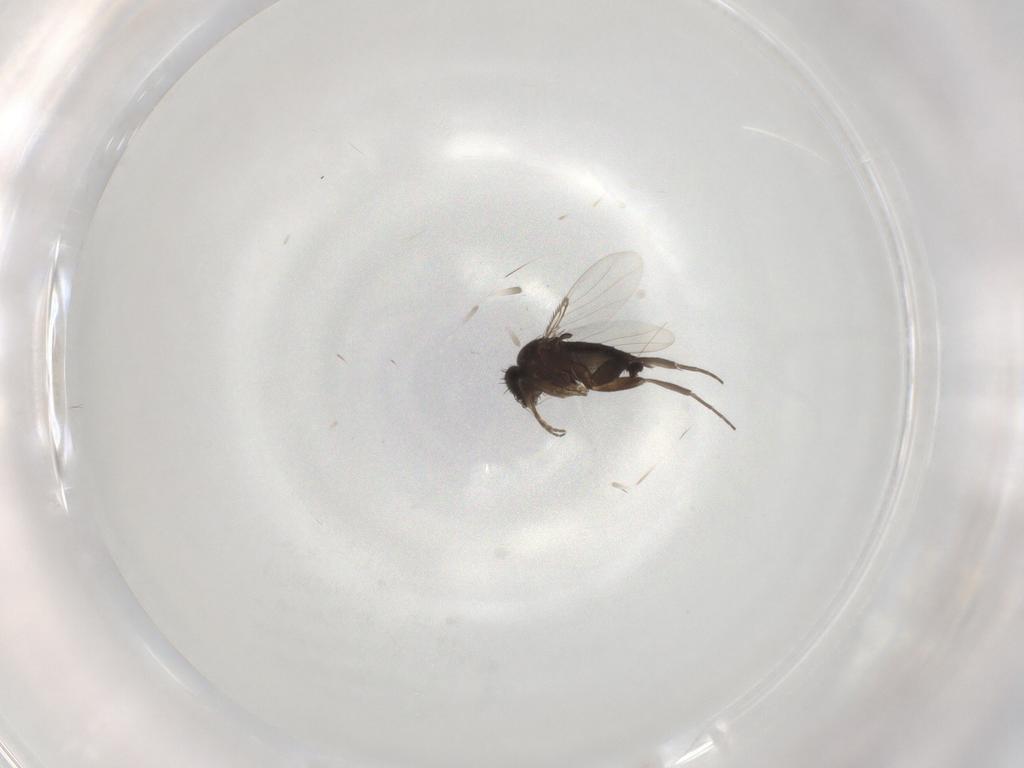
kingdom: Animalia
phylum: Arthropoda
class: Insecta
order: Diptera
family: Phoridae
